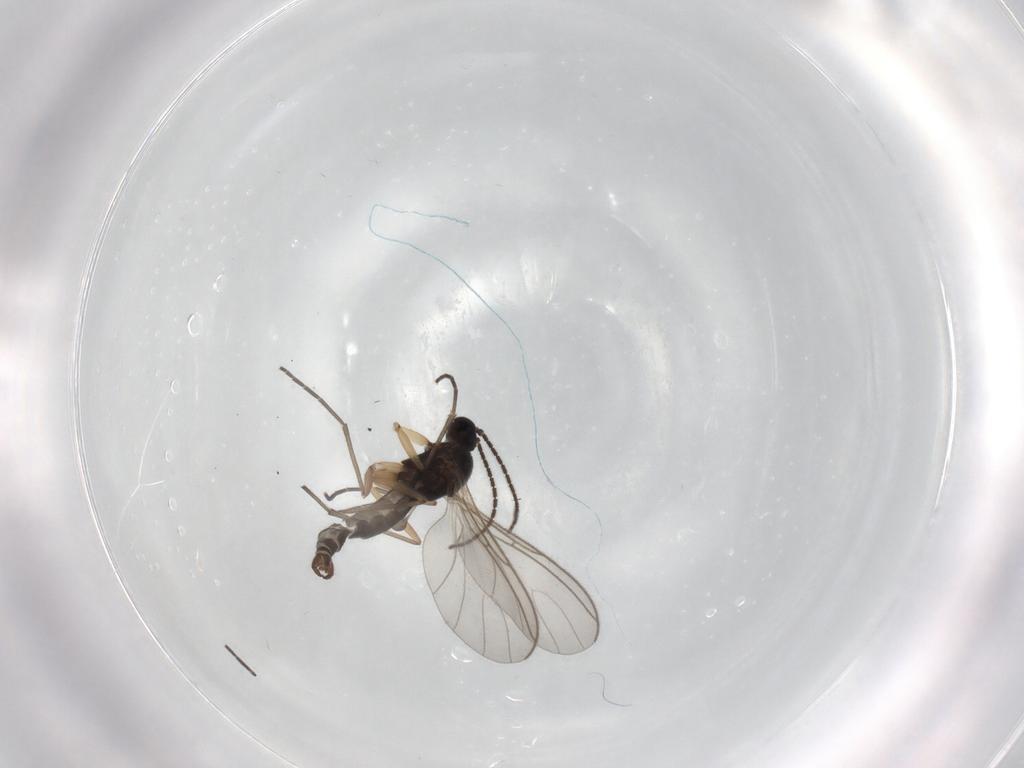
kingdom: Animalia
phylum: Arthropoda
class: Insecta
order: Diptera
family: Sciaridae
